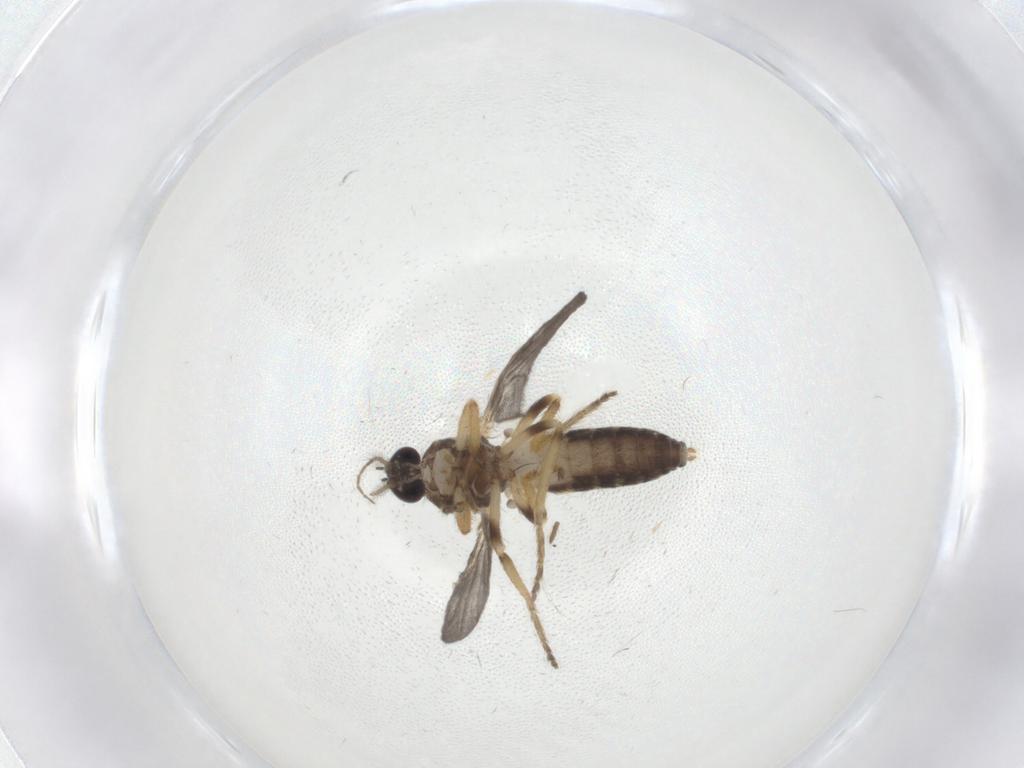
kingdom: Animalia
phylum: Arthropoda
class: Insecta
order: Diptera
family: Ceratopogonidae
